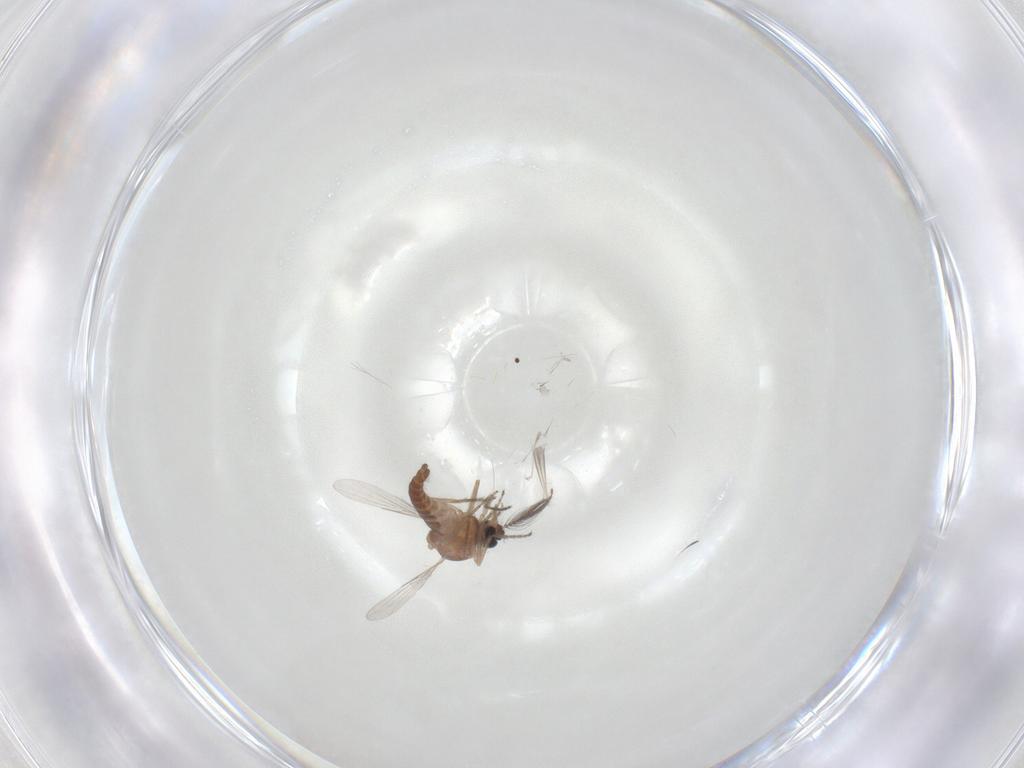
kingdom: Animalia
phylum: Arthropoda
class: Insecta
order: Diptera
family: Ceratopogonidae
